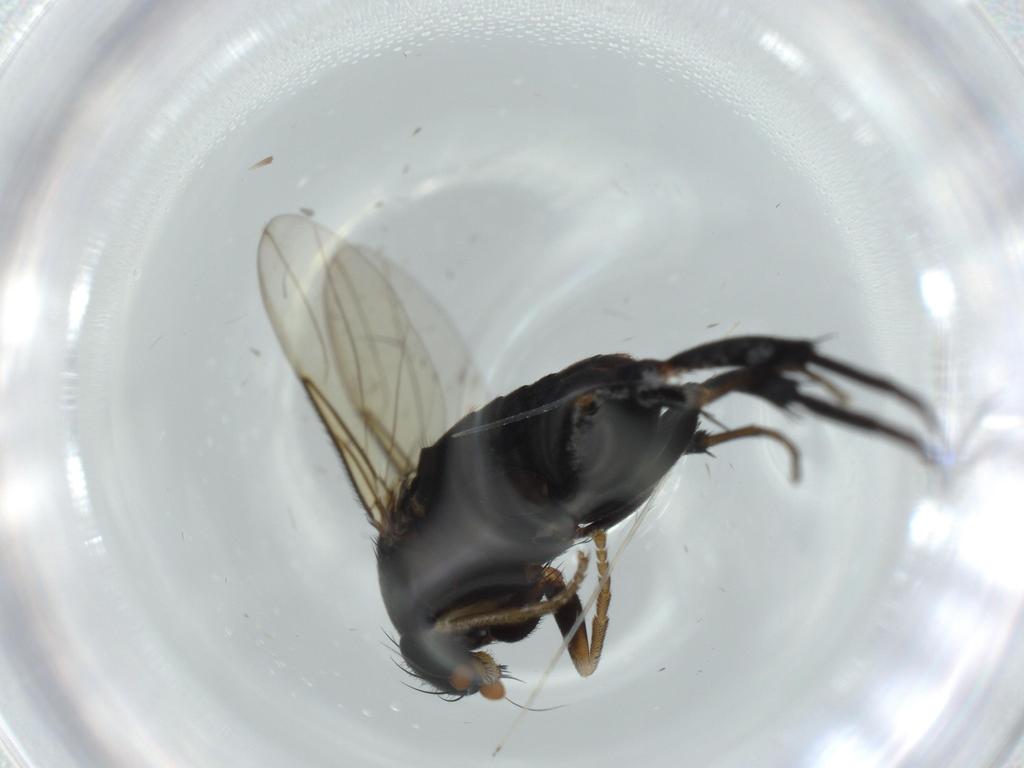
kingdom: Animalia
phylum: Arthropoda
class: Insecta
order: Diptera
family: Phoridae
